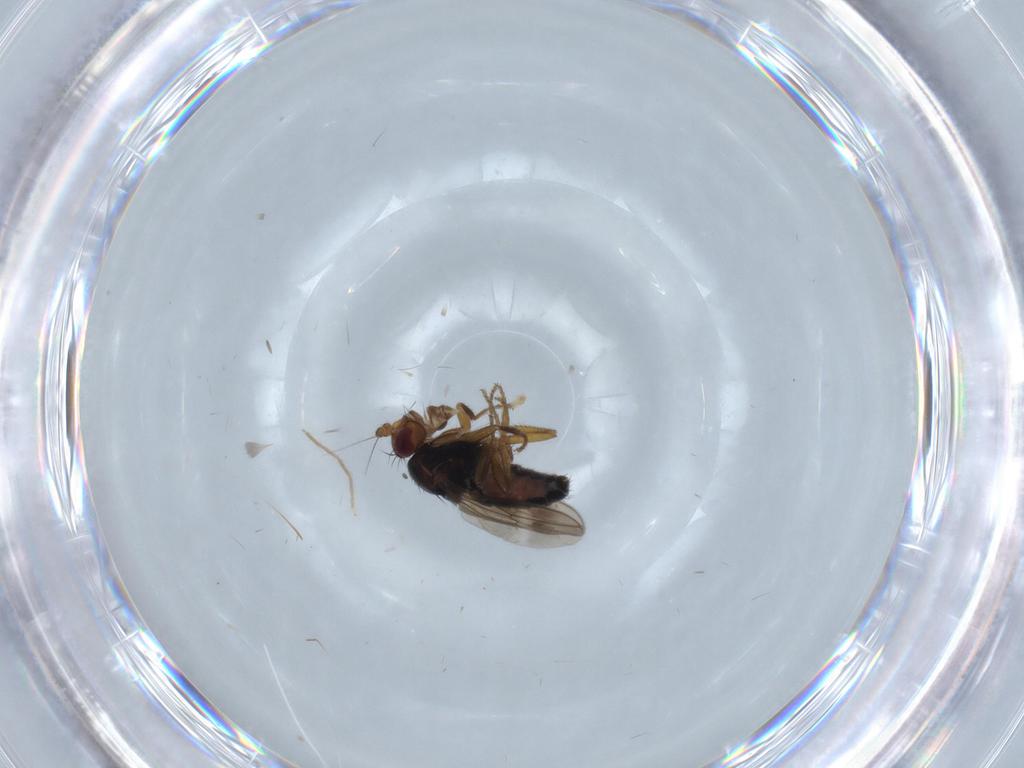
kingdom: Animalia
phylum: Arthropoda
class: Insecta
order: Diptera
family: Sphaeroceridae
